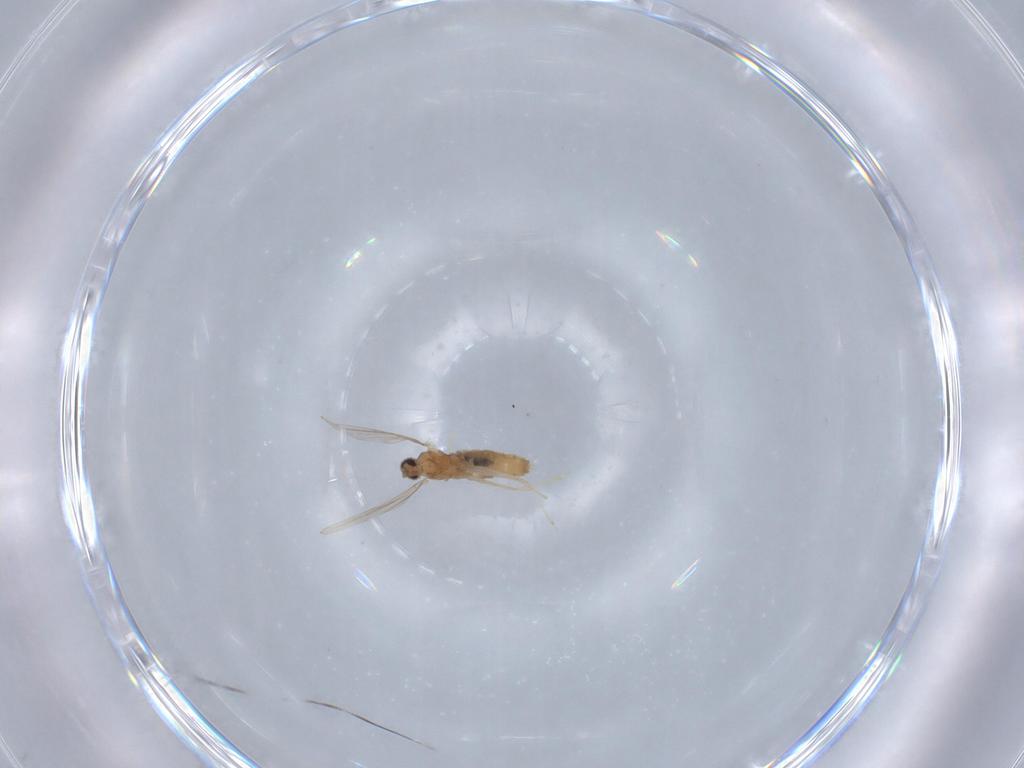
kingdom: Animalia
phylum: Arthropoda
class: Insecta
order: Diptera
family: Cecidomyiidae
